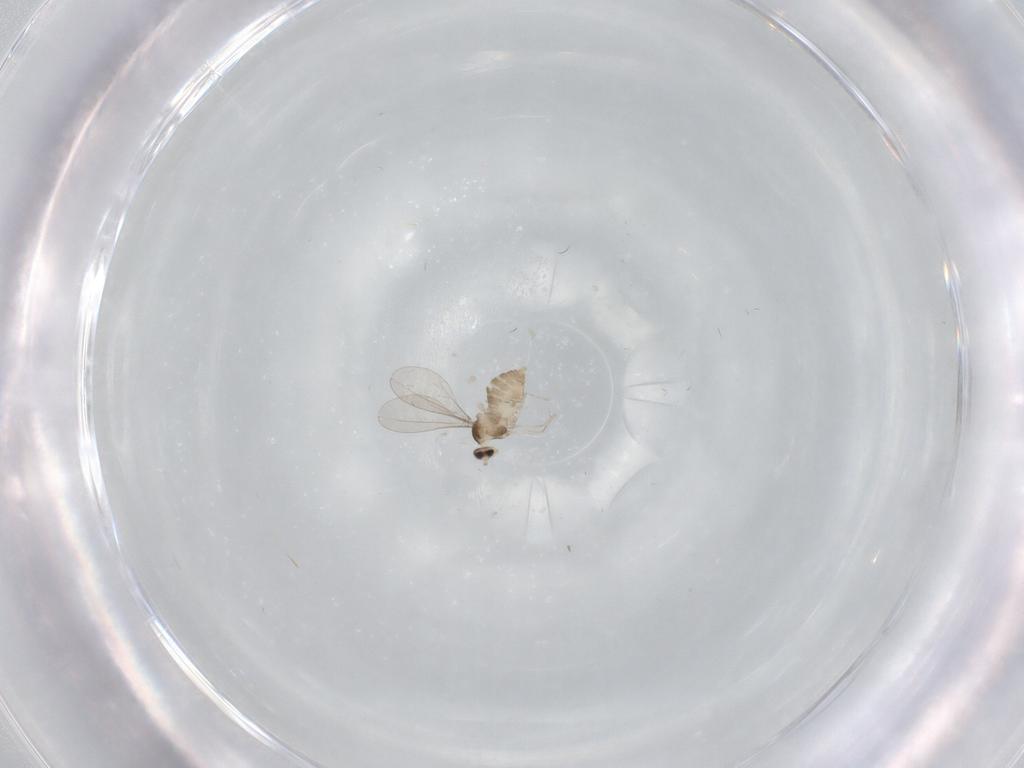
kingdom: Animalia
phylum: Arthropoda
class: Insecta
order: Diptera
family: Cecidomyiidae
